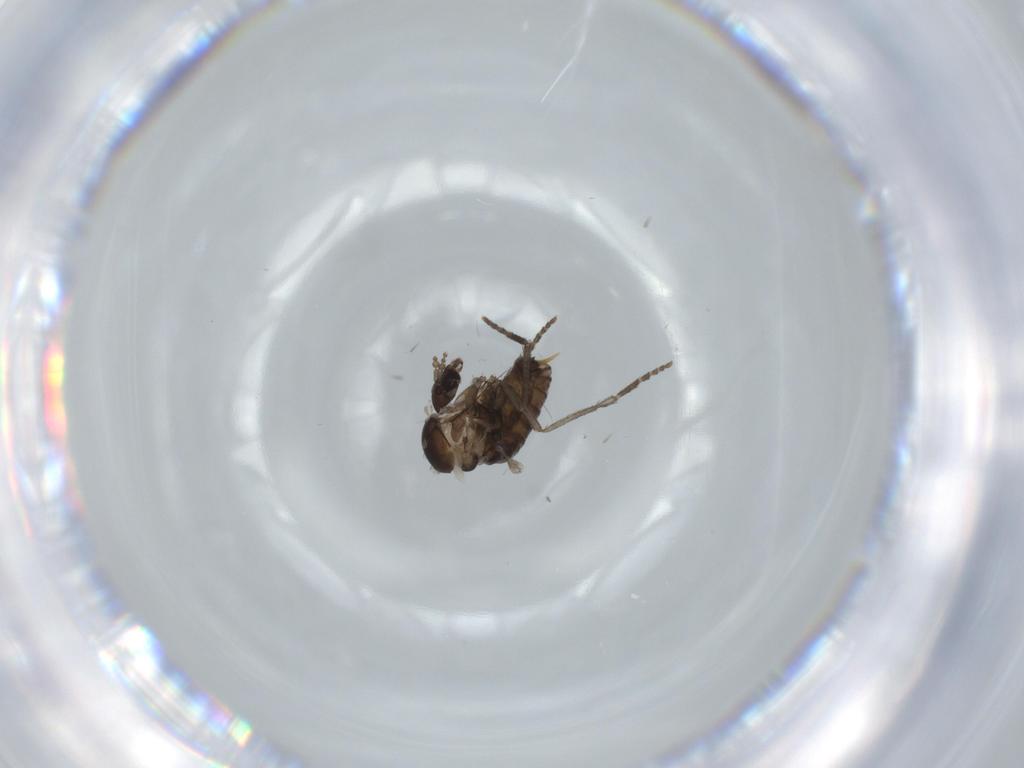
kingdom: Animalia
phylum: Arthropoda
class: Insecta
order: Diptera
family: Psychodidae
